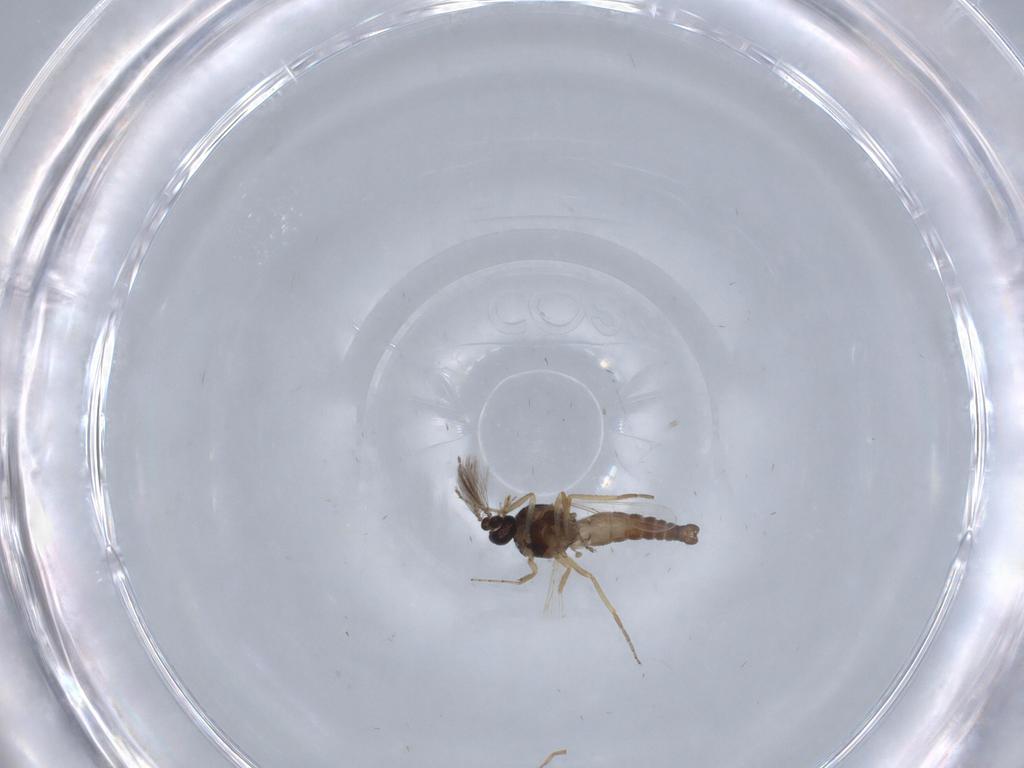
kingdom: Animalia
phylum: Arthropoda
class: Insecta
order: Diptera
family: Ceratopogonidae
